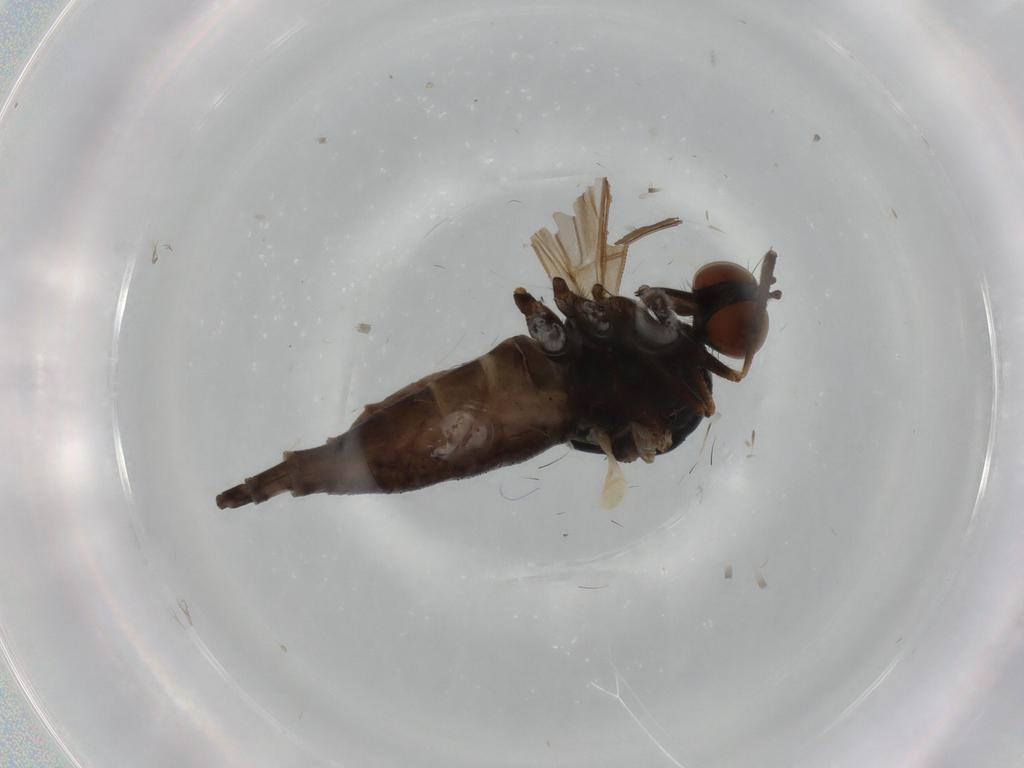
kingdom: Animalia
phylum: Arthropoda
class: Insecta
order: Diptera
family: Empididae
